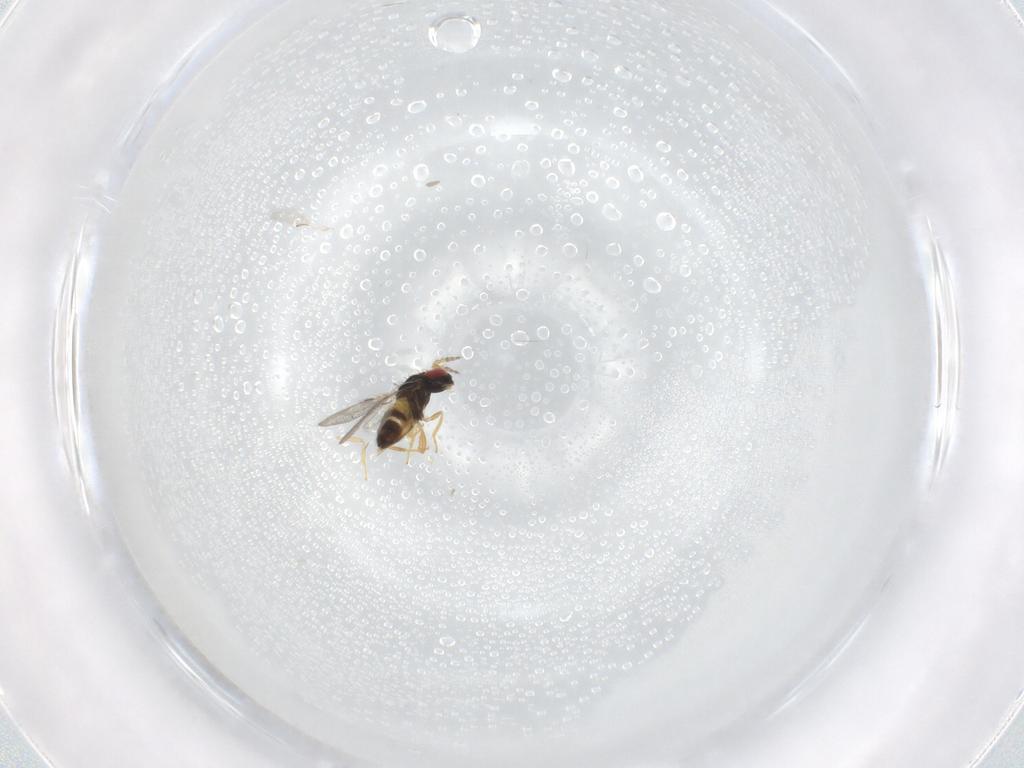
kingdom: Animalia
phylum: Arthropoda
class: Insecta
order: Hymenoptera
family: Trichogrammatidae
